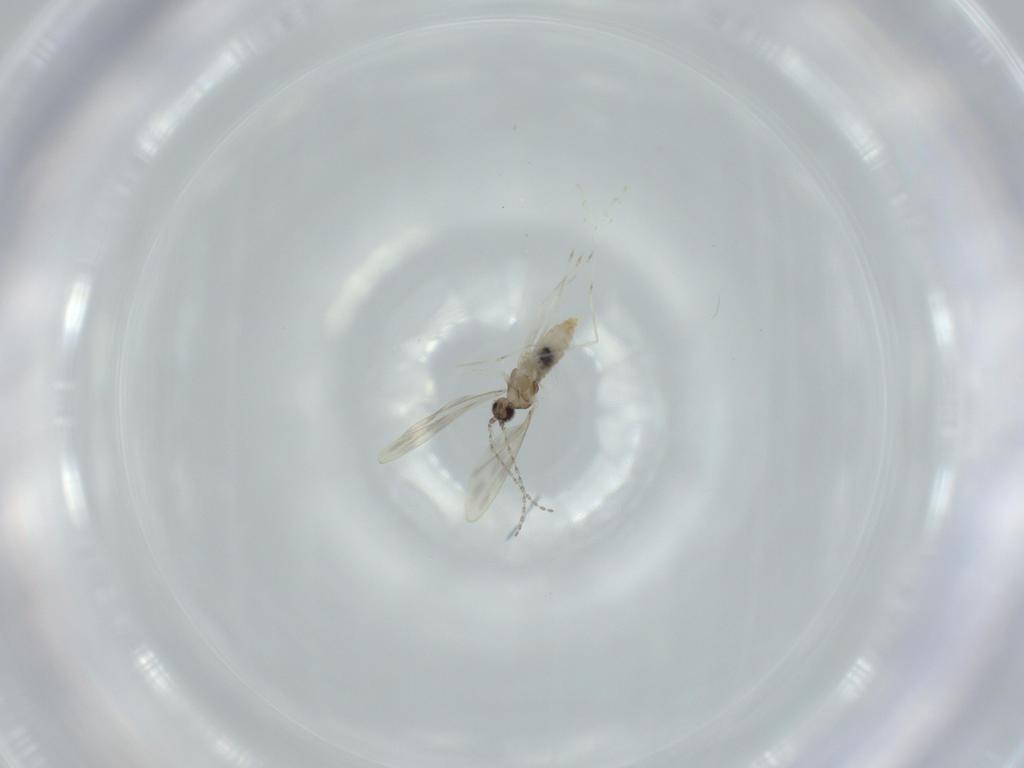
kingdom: Animalia
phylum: Arthropoda
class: Insecta
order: Diptera
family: Cecidomyiidae
